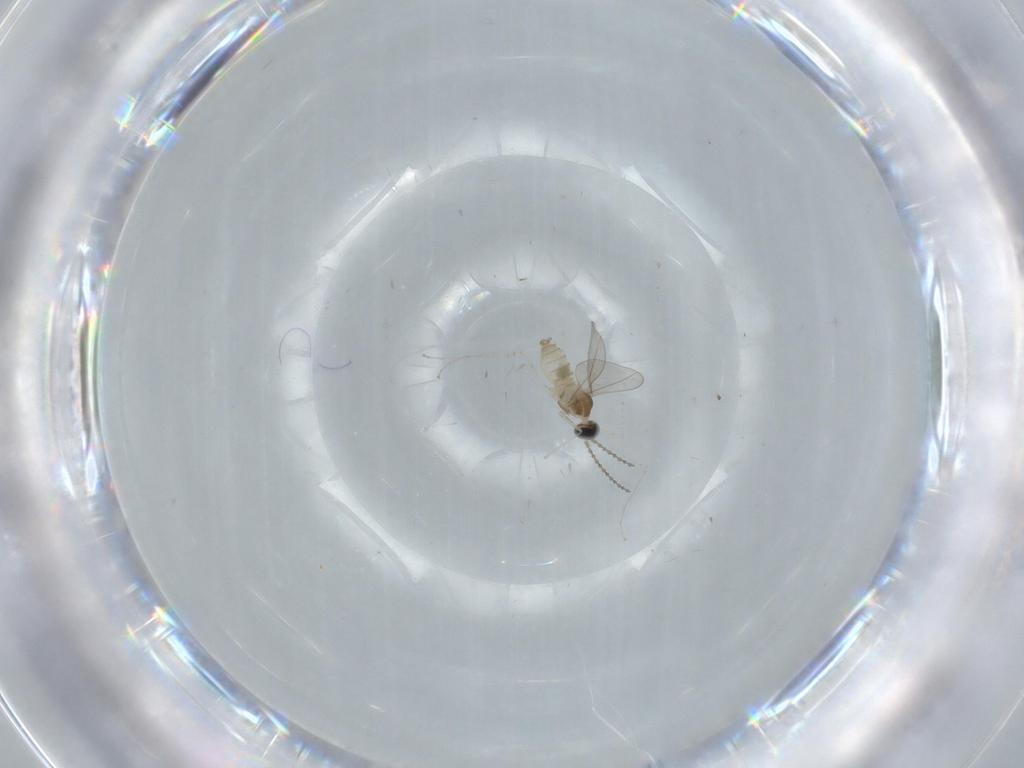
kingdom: Animalia
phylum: Arthropoda
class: Insecta
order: Diptera
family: Cecidomyiidae
